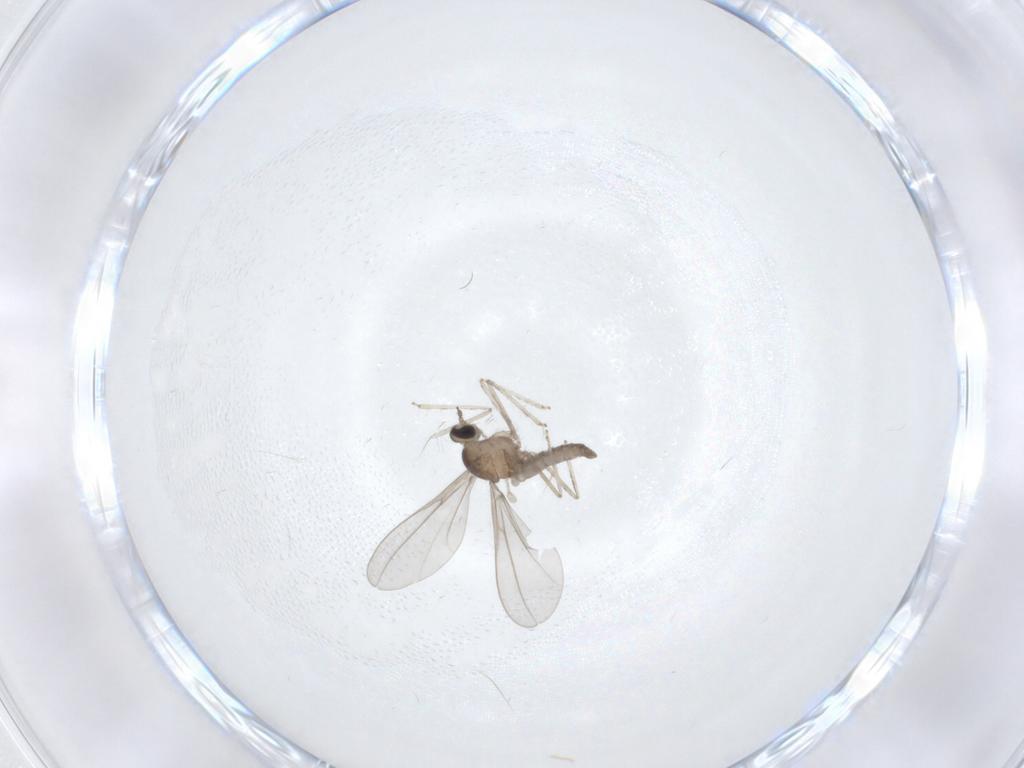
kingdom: Animalia
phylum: Arthropoda
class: Insecta
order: Diptera
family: Cecidomyiidae
